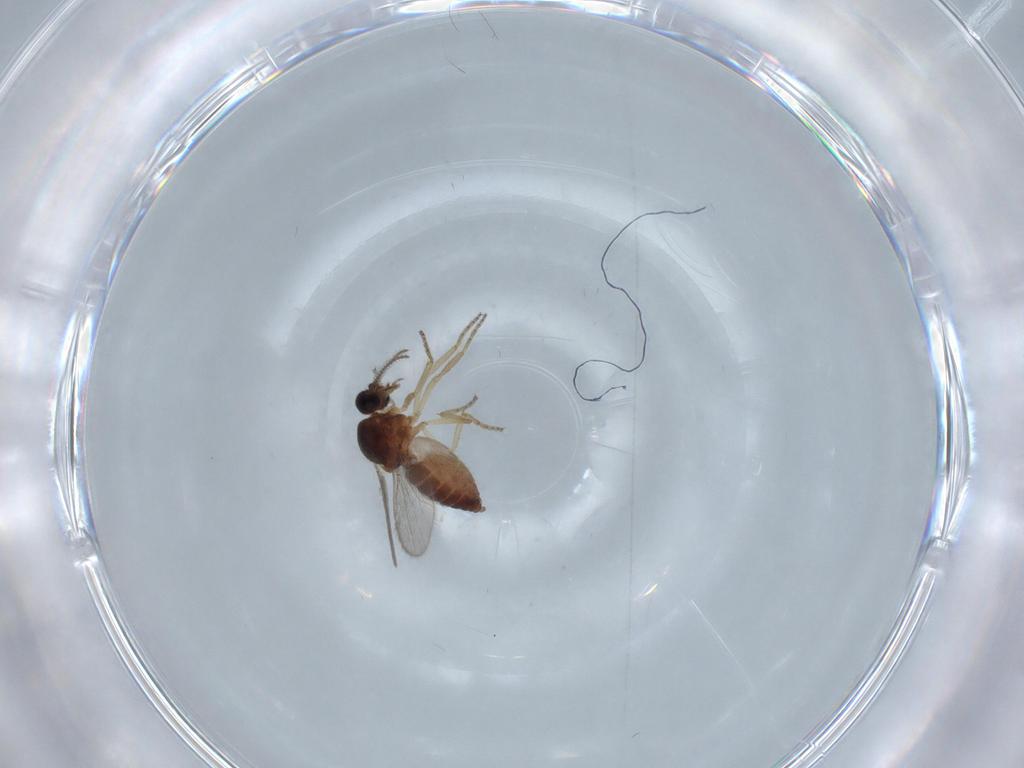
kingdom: Animalia
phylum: Arthropoda
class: Insecta
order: Diptera
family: Ceratopogonidae
